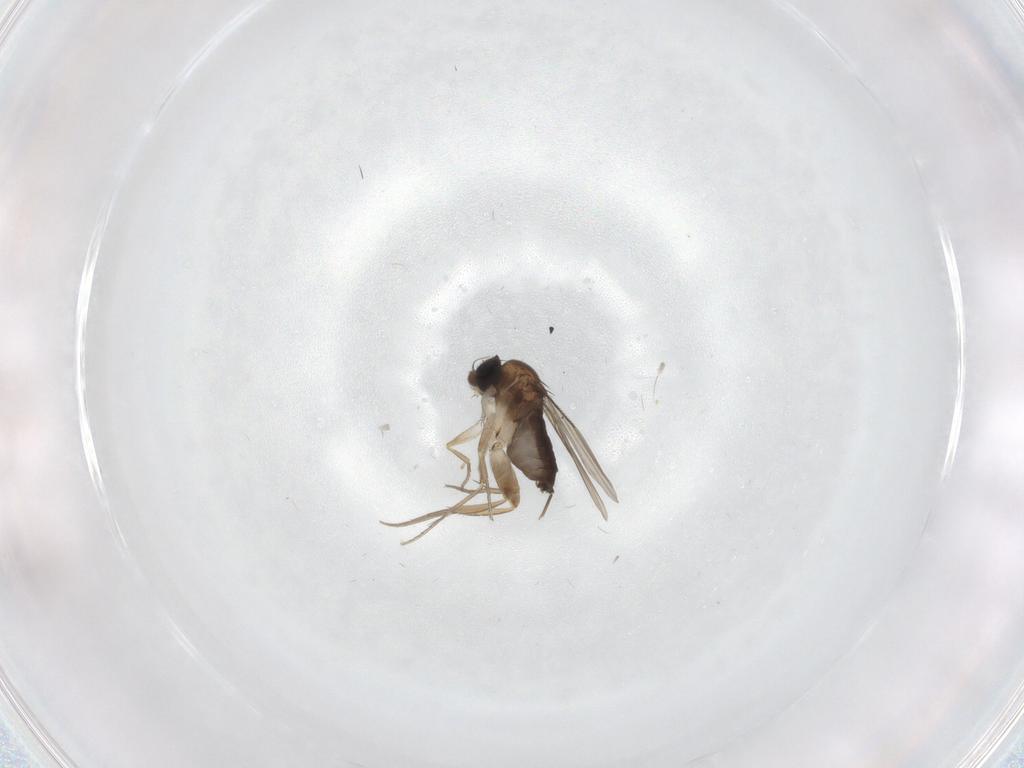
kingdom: Animalia
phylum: Arthropoda
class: Insecta
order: Diptera
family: Phoridae
